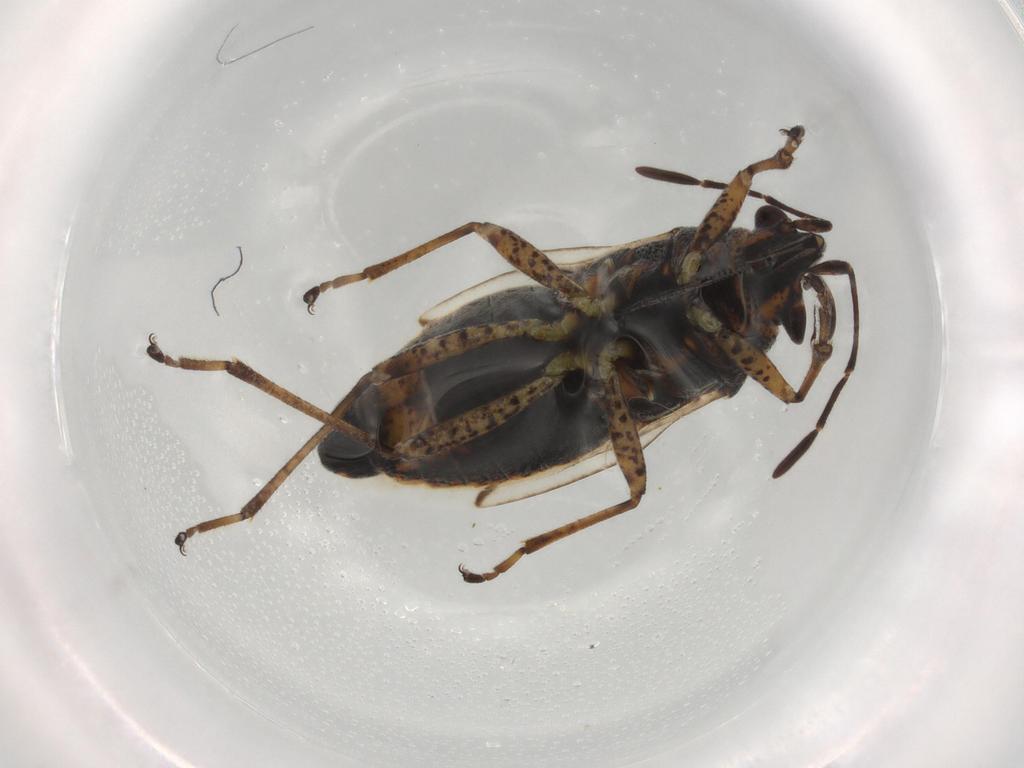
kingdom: Animalia
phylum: Arthropoda
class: Insecta
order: Hemiptera
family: Lygaeidae
